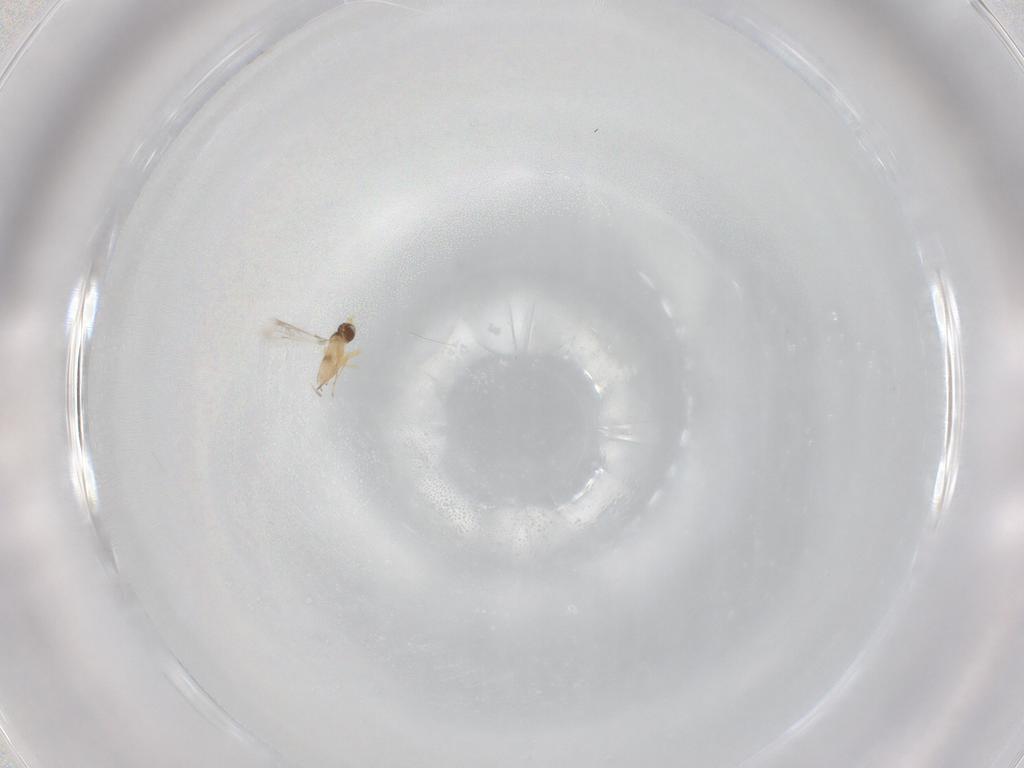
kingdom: Animalia
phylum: Arthropoda
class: Insecta
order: Hymenoptera
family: Mymaridae
